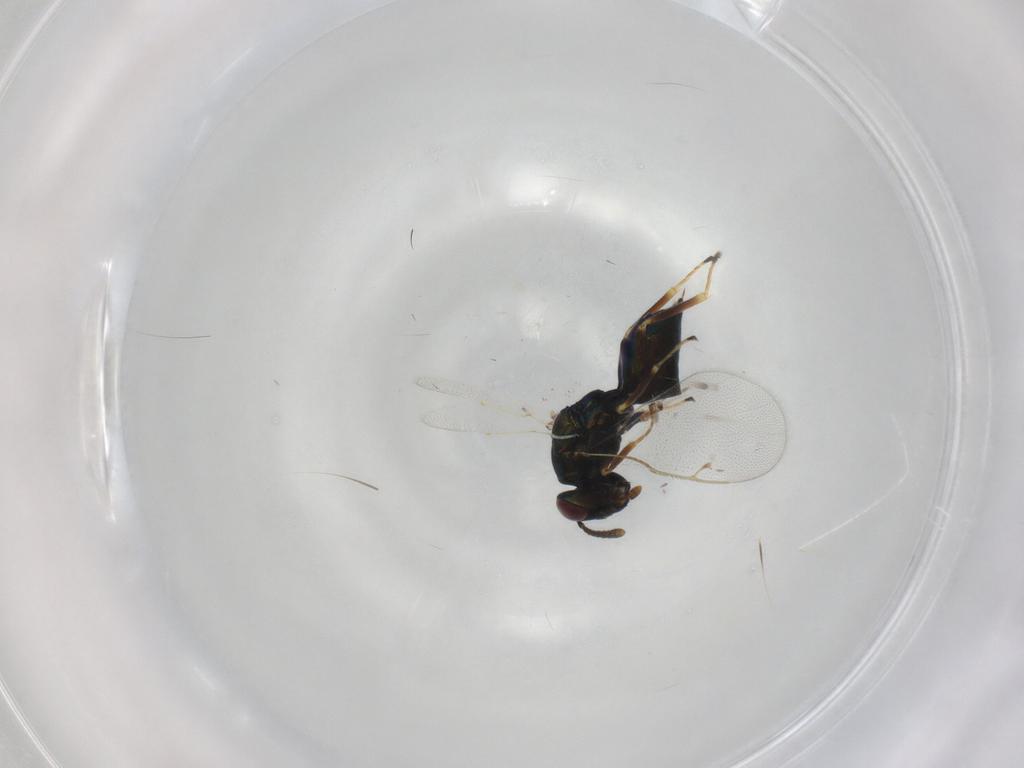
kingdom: Animalia
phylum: Arthropoda
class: Insecta
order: Hymenoptera
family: Pteromalidae
